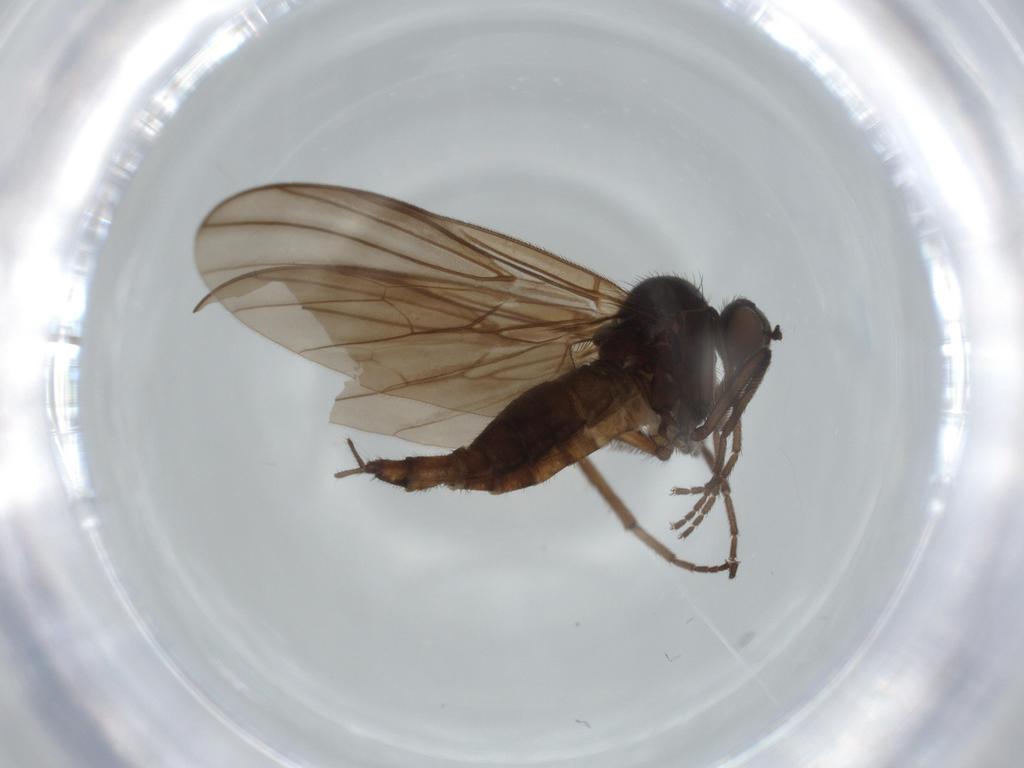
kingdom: Animalia
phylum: Arthropoda
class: Insecta
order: Diptera
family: Empididae
